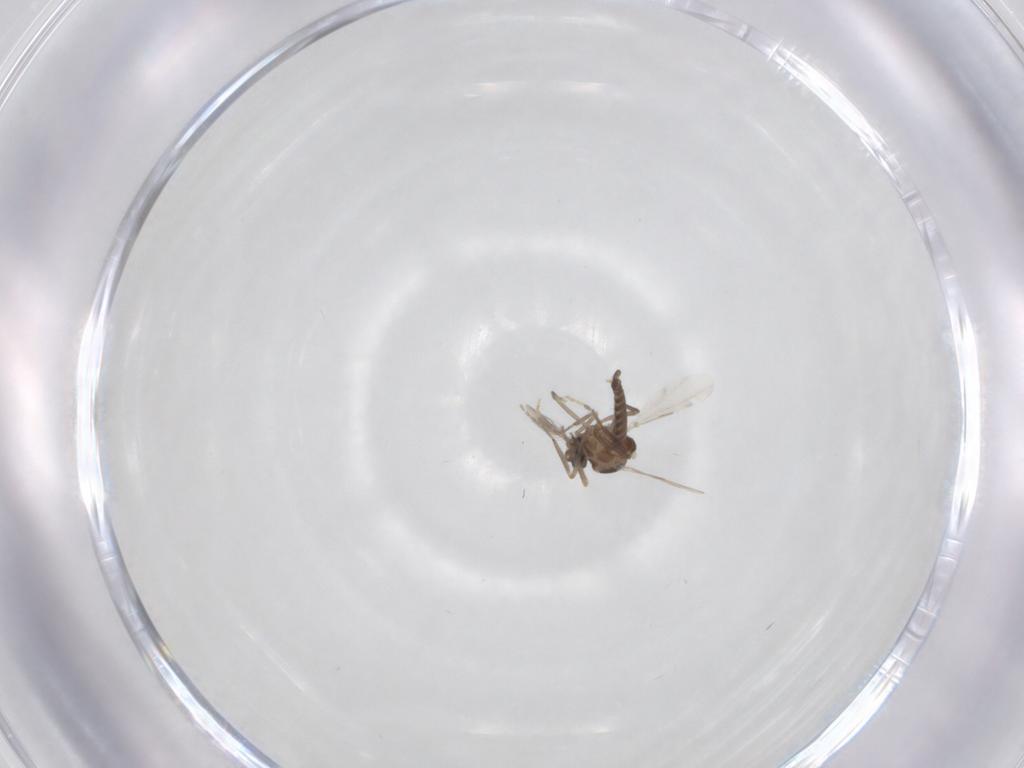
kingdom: Animalia
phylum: Arthropoda
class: Insecta
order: Diptera
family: Ceratopogonidae
